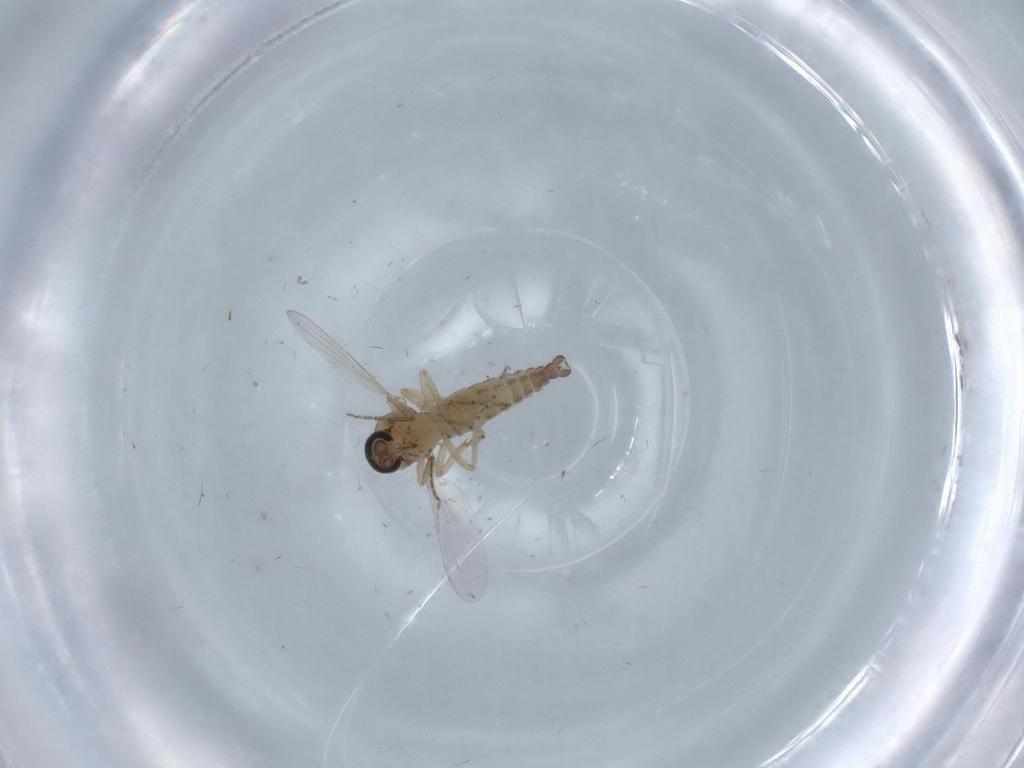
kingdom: Animalia
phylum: Arthropoda
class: Insecta
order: Diptera
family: Ceratopogonidae
